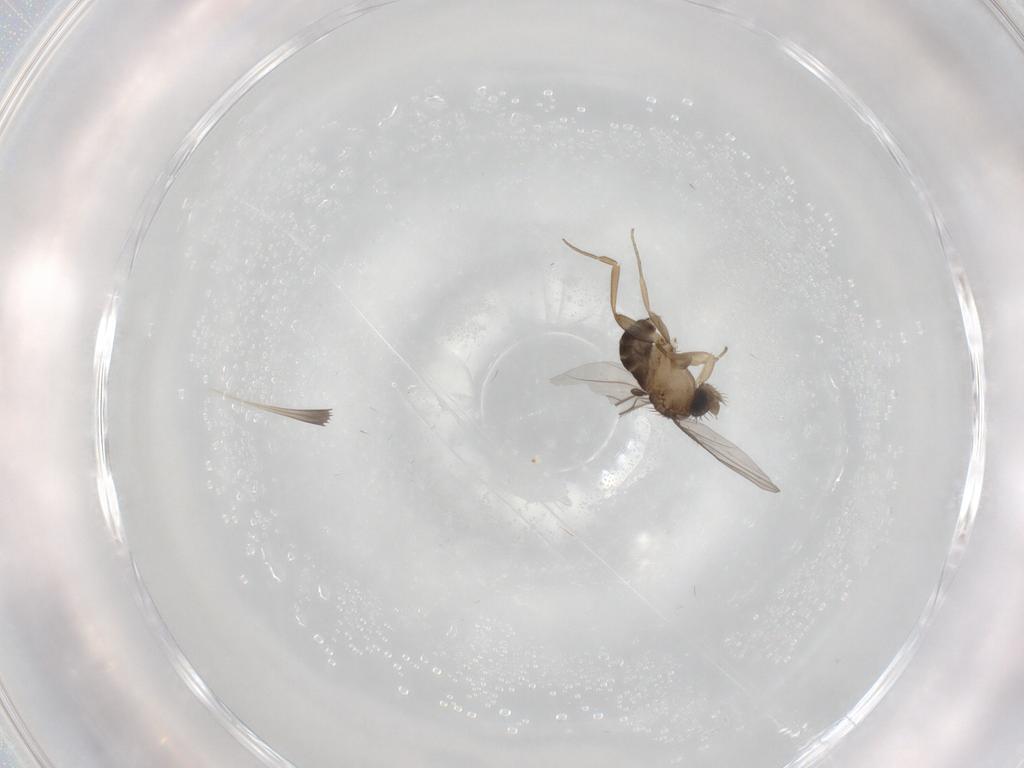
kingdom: Animalia
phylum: Arthropoda
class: Insecta
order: Diptera
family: Phoridae
